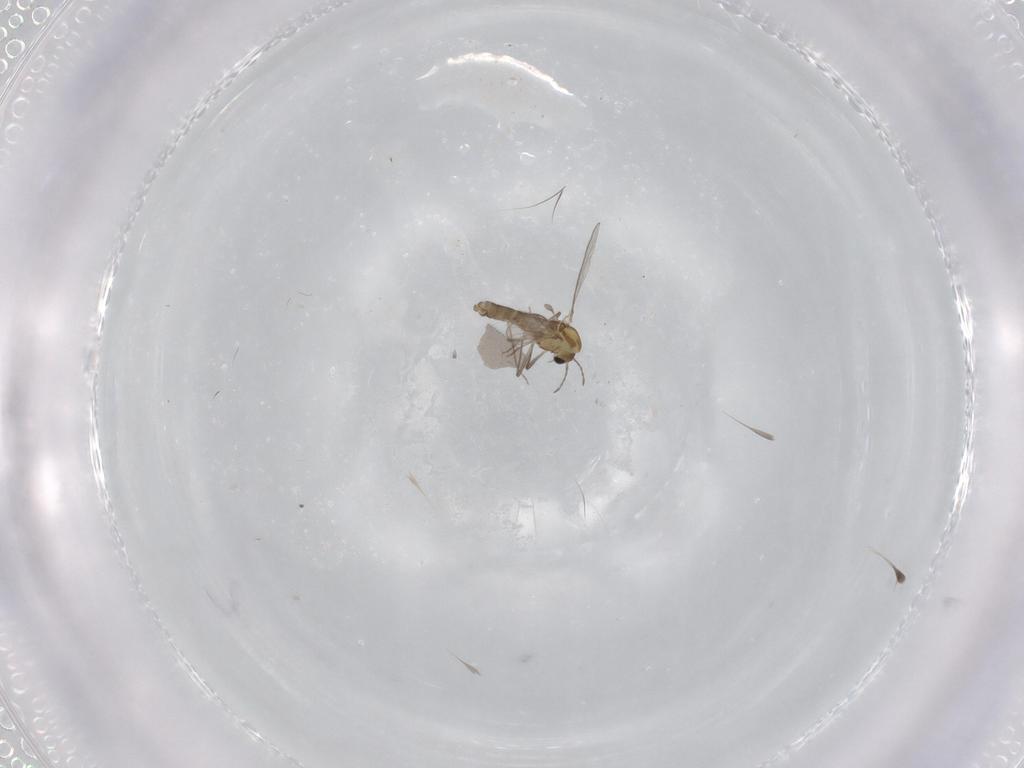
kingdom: Animalia
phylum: Arthropoda
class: Insecta
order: Diptera
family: Chironomidae
